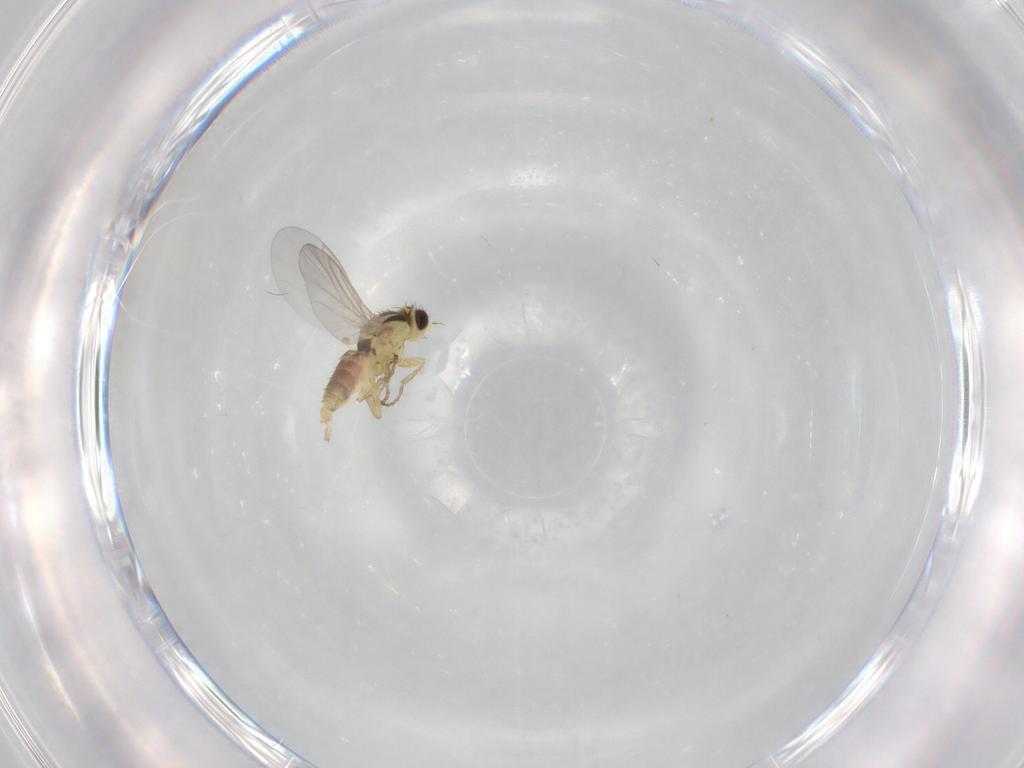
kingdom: Animalia
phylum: Arthropoda
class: Insecta
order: Diptera
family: Agromyzidae
